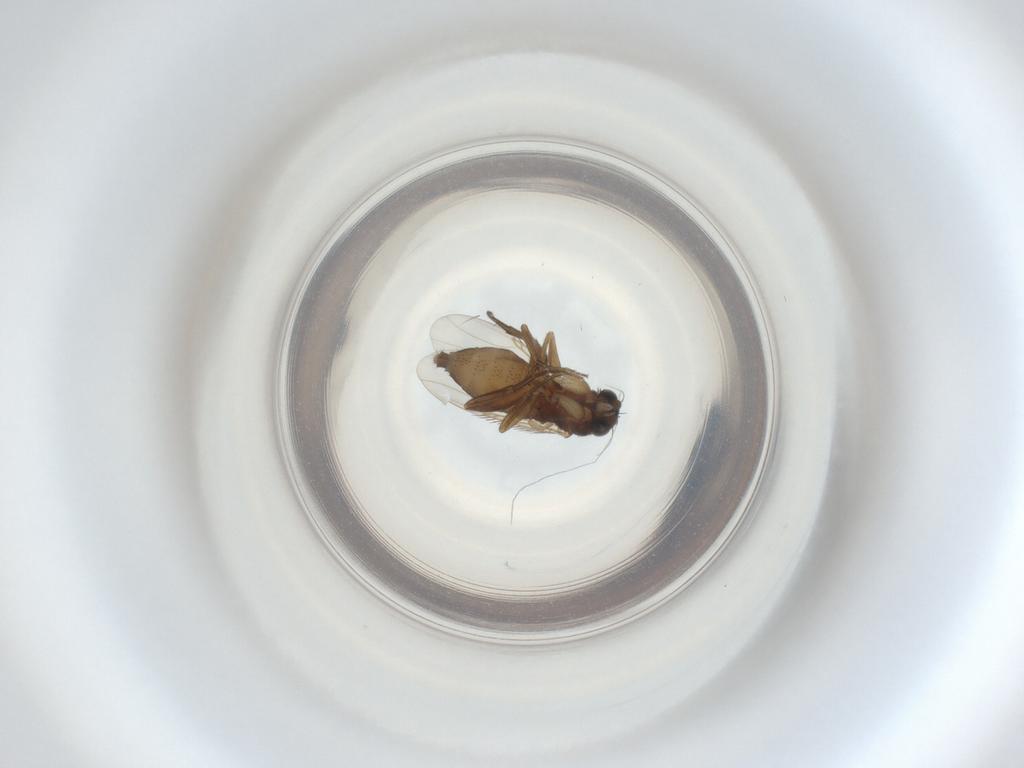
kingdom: Animalia
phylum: Arthropoda
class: Insecta
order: Diptera
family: Phoridae
